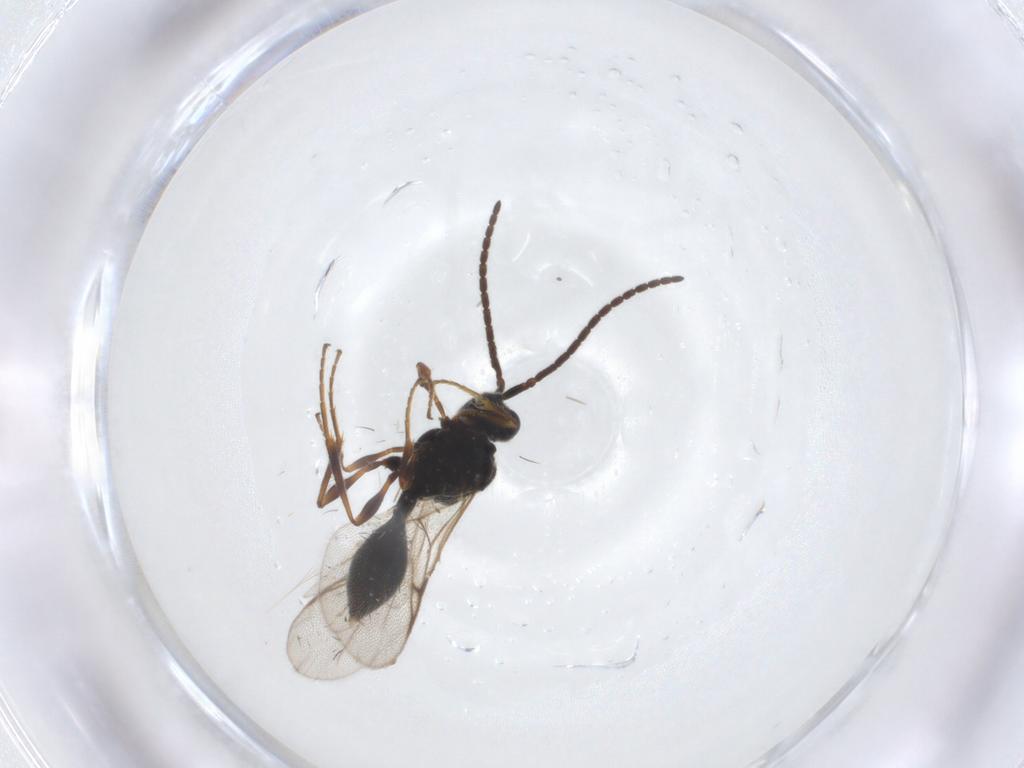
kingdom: Animalia
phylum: Arthropoda
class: Insecta
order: Hymenoptera
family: Diapriidae
